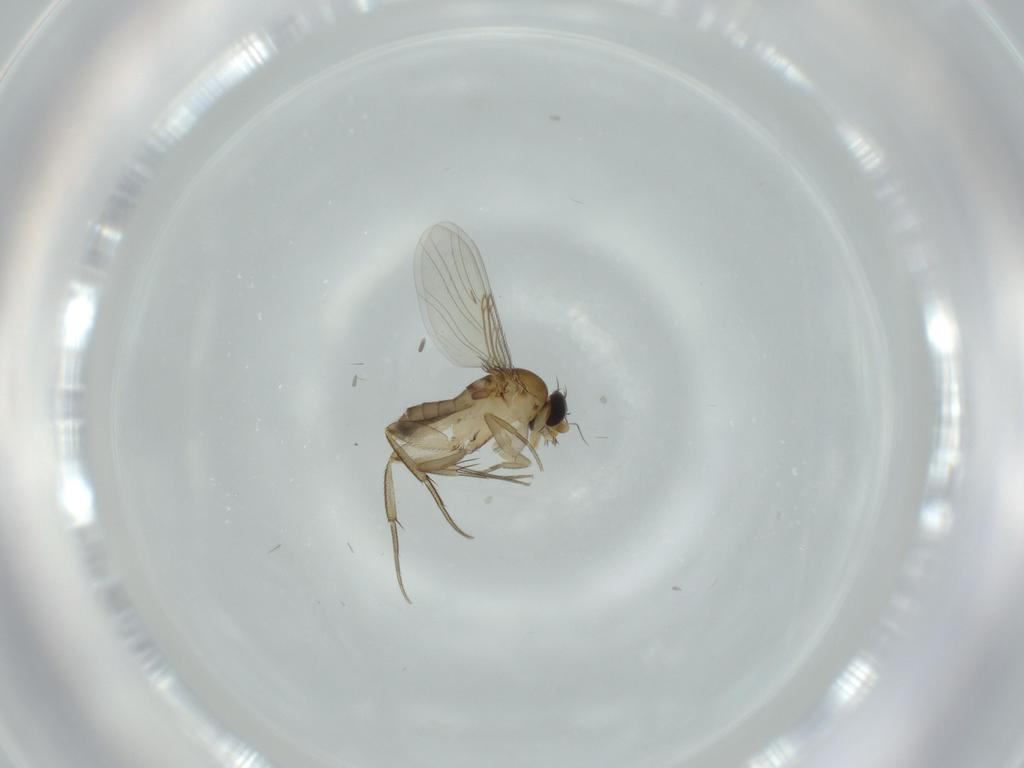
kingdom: Animalia
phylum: Arthropoda
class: Insecta
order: Diptera
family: Phoridae
